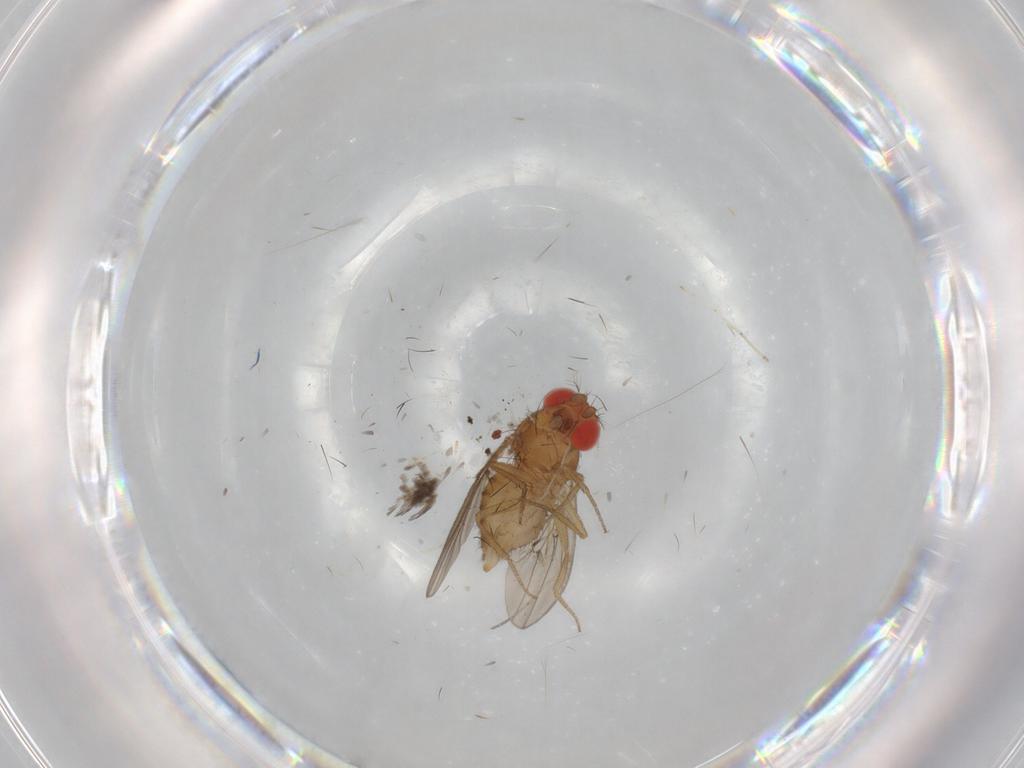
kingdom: Animalia
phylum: Arthropoda
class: Insecta
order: Diptera
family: Drosophilidae
